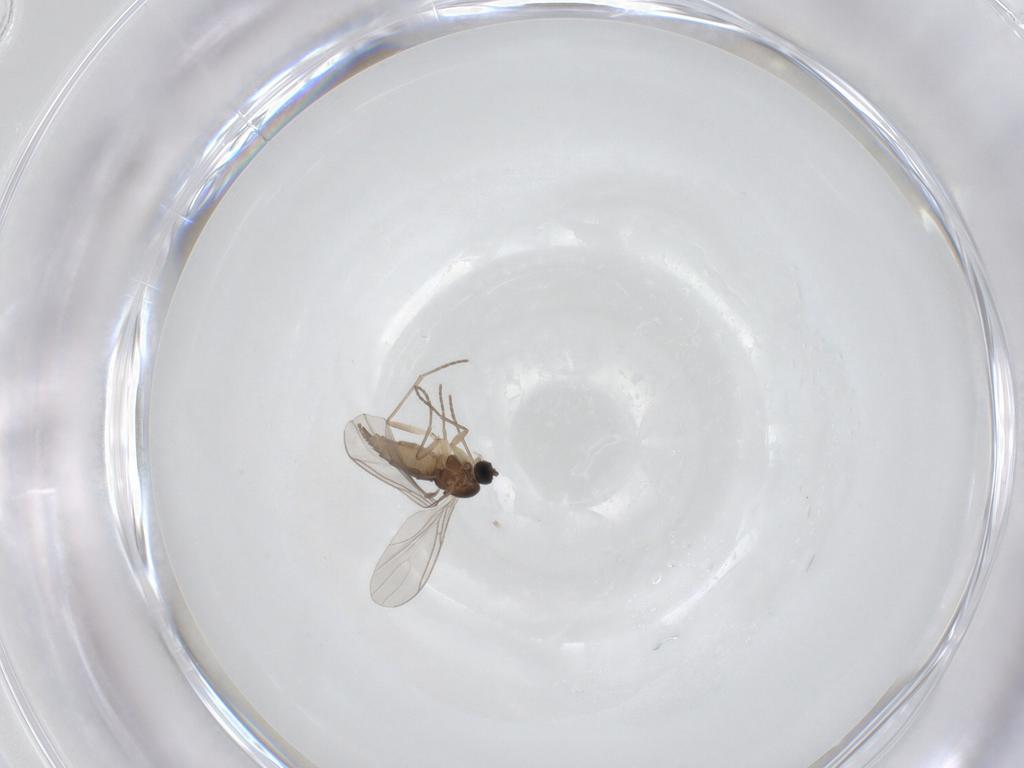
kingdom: Animalia
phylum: Arthropoda
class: Insecta
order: Diptera
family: Sciaridae
